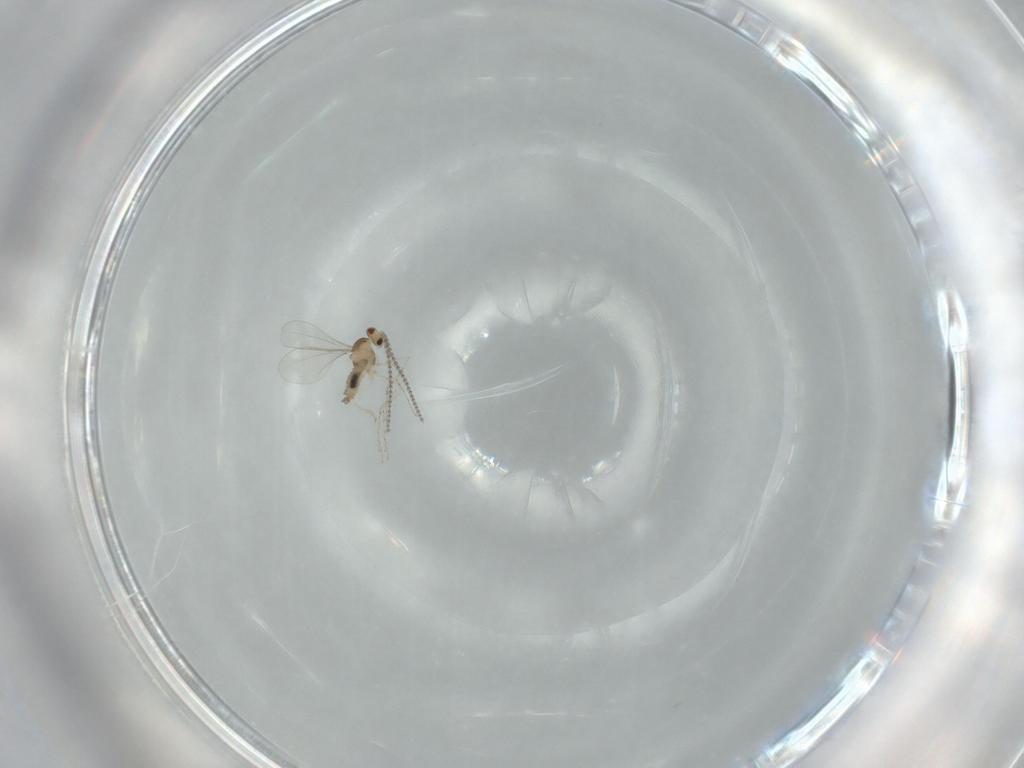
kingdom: Animalia
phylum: Arthropoda
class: Insecta
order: Diptera
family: Cecidomyiidae
